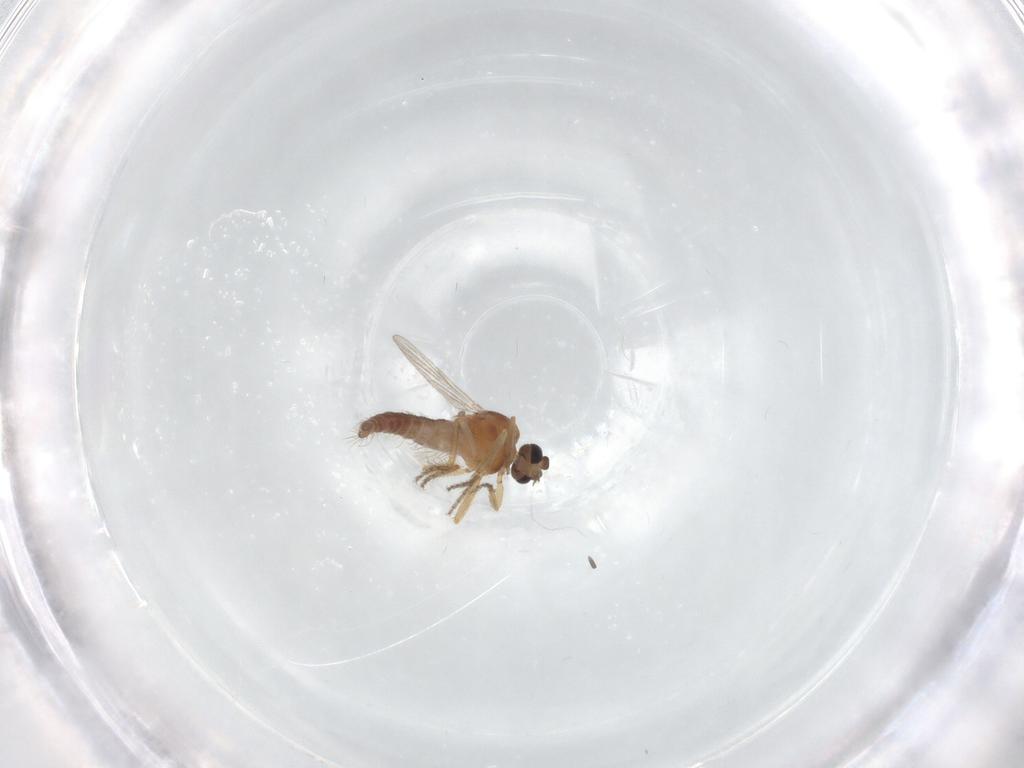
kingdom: Animalia
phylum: Arthropoda
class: Insecta
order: Diptera
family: Ceratopogonidae
